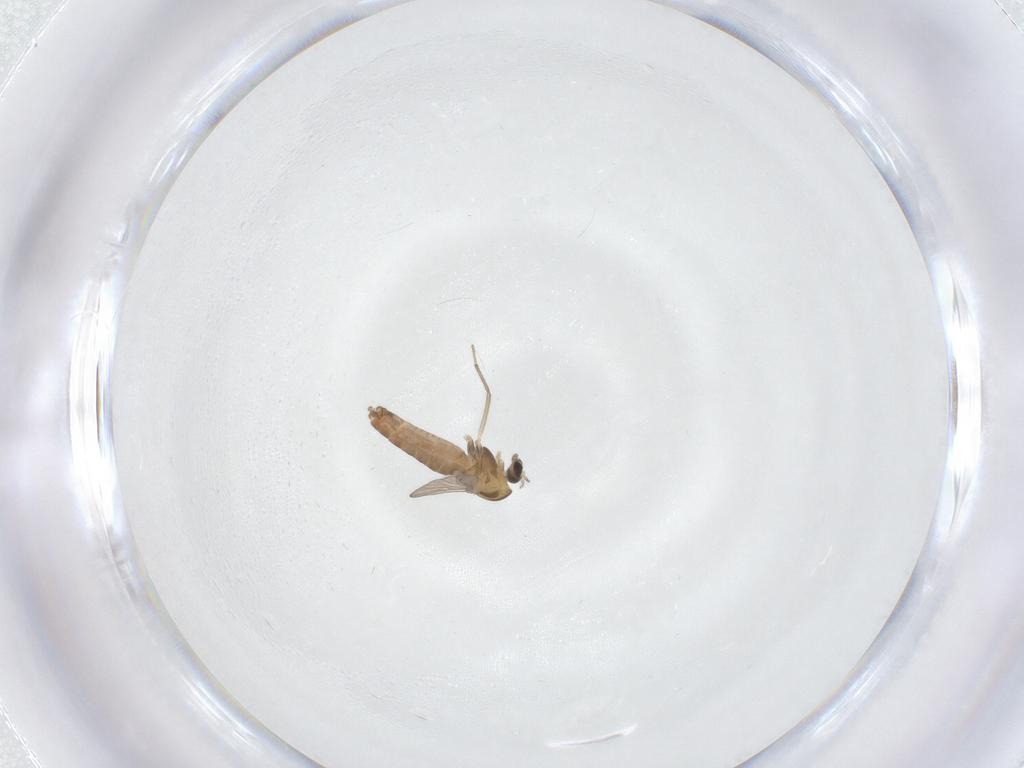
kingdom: Animalia
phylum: Arthropoda
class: Insecta
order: Diptera
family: Chironomidae
